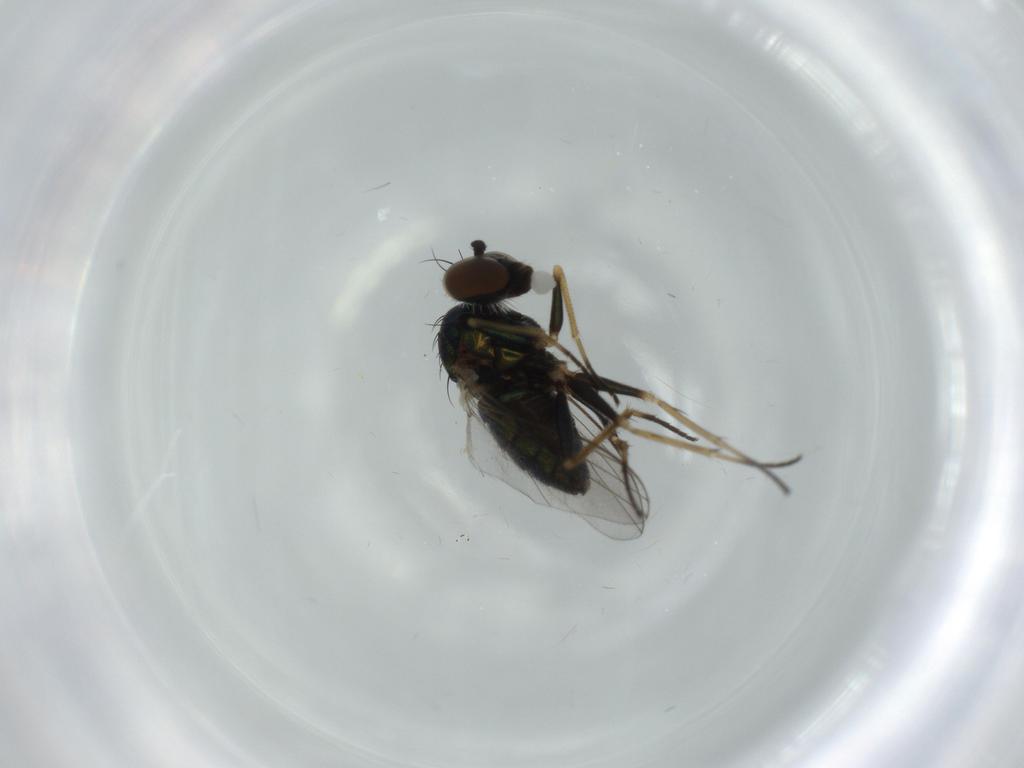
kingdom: Animalia
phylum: Arthropoda
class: Insecta
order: Diptera
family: Dolichopodidae
